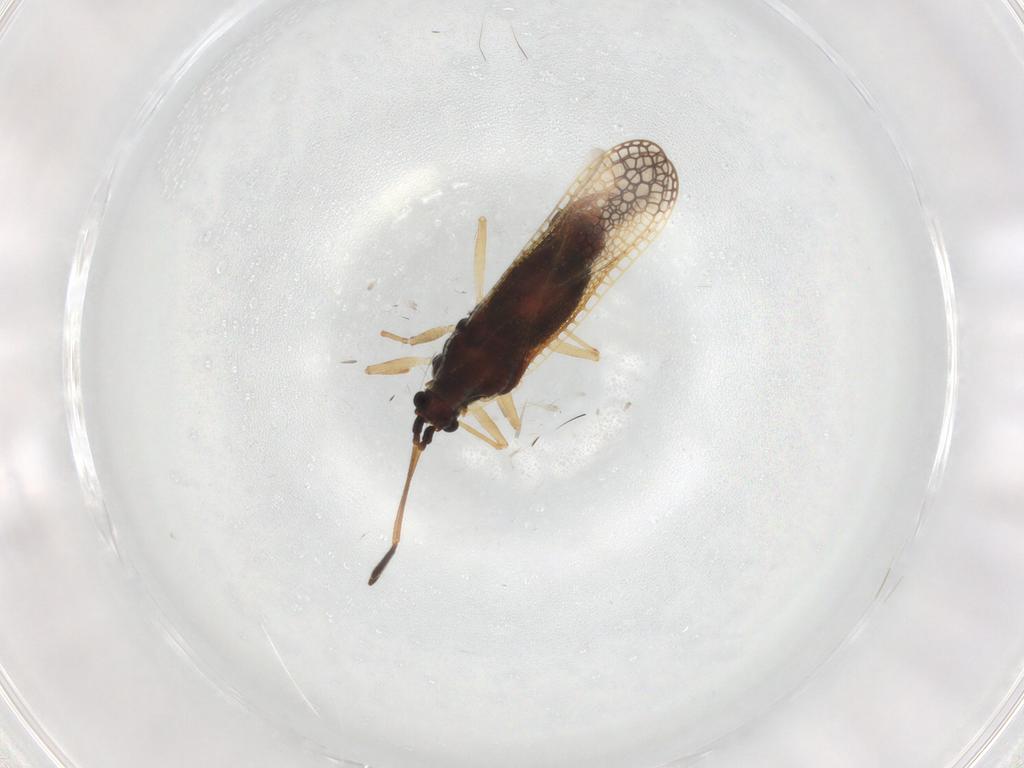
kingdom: Animalia
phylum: Arthropoda
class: Insecta
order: Hemiptera
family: Tingidae
